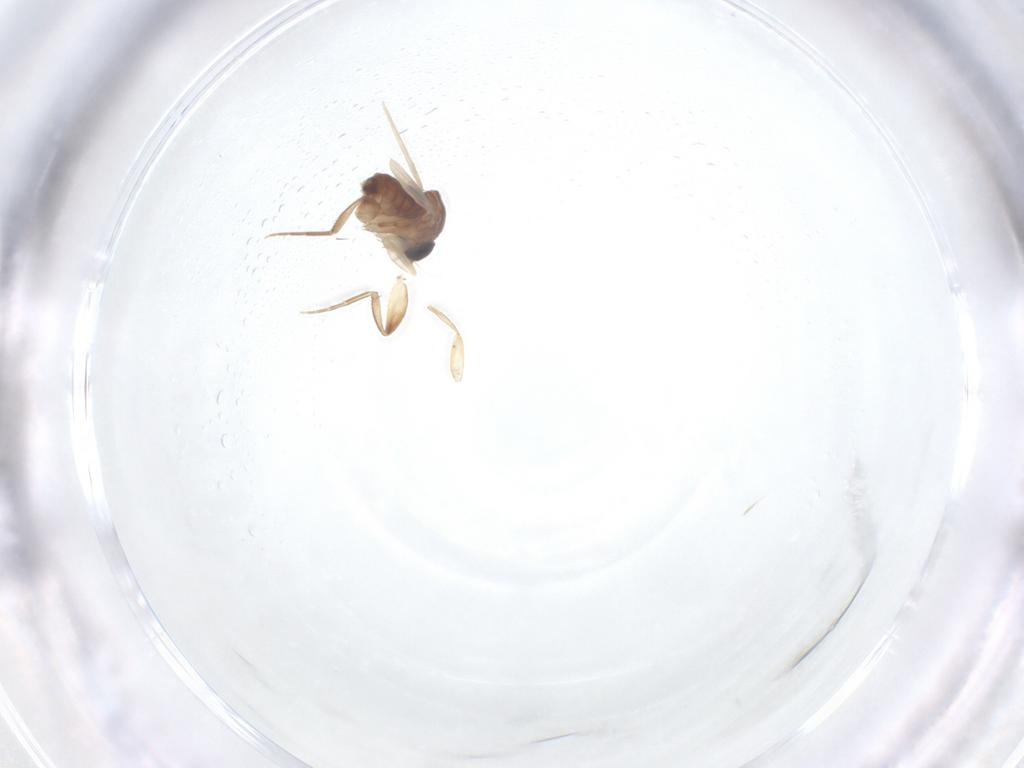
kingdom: Animalia
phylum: Arthropoda
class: Insecta
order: Diptera
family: Phoridae
